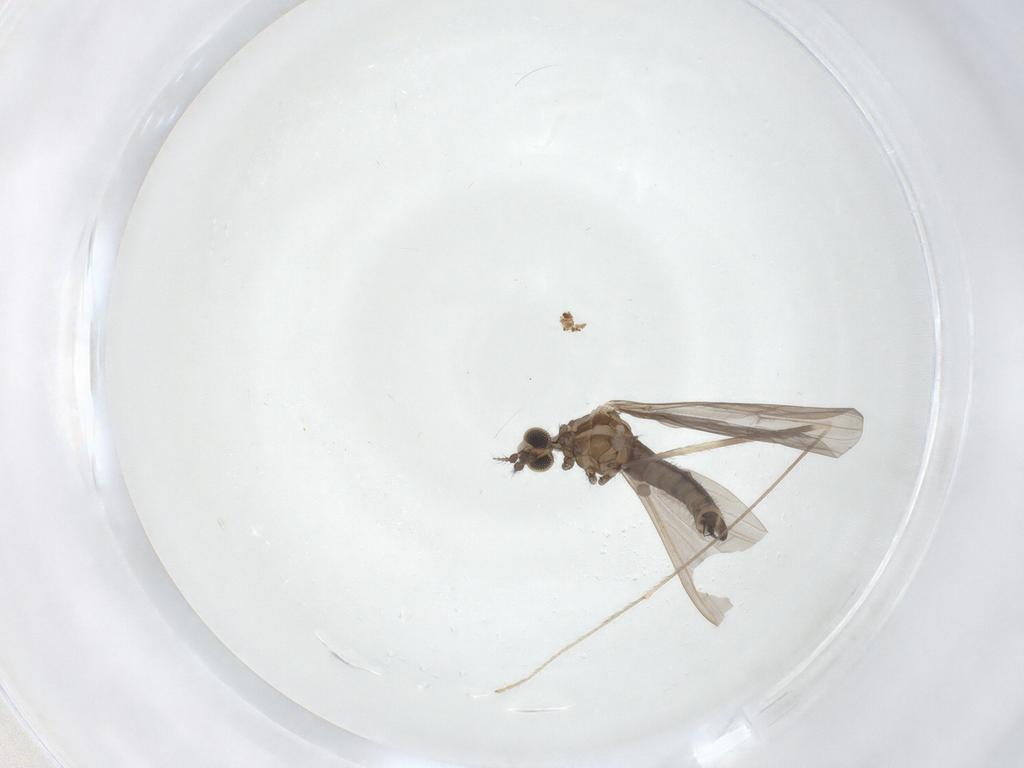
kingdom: Animalia
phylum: Arthropoda
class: Insecta
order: Diptera
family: Limoniidae
